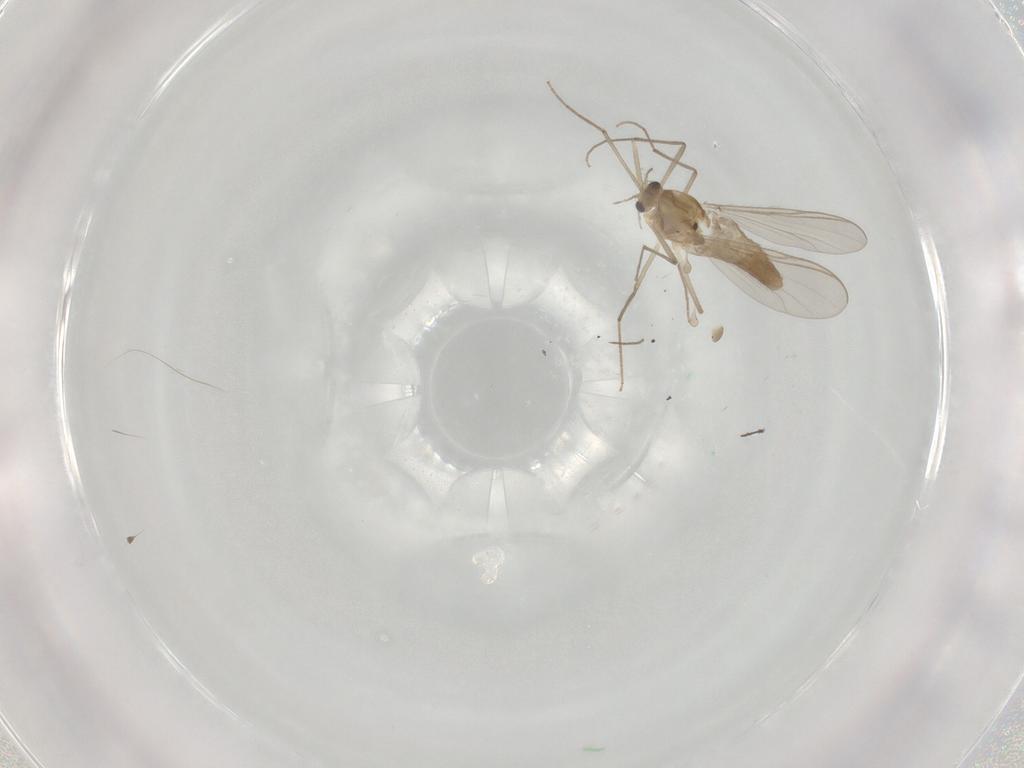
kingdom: Animalia
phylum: Arthropoda
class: Insecta
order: Diptera
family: Chironomidae
